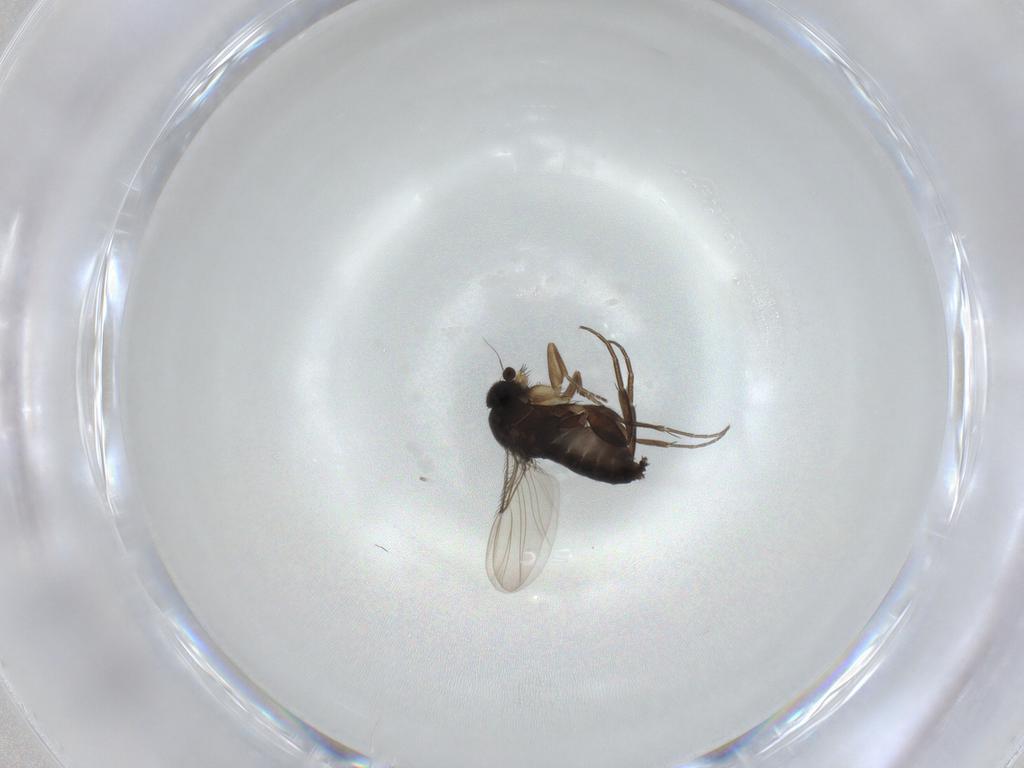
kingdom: Animalia
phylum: Arthropoda
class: Insecta
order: Diptera
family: Phoridae
